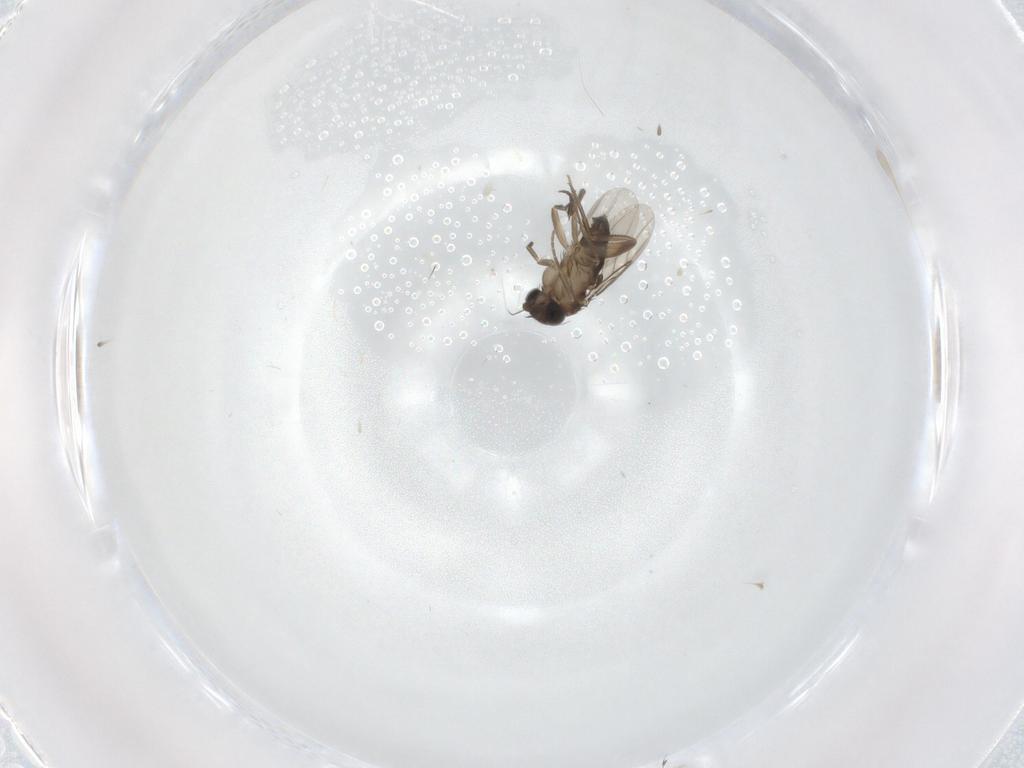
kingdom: Animalia
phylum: Arthropoda
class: Insecta
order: Diptera
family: Phoridae
